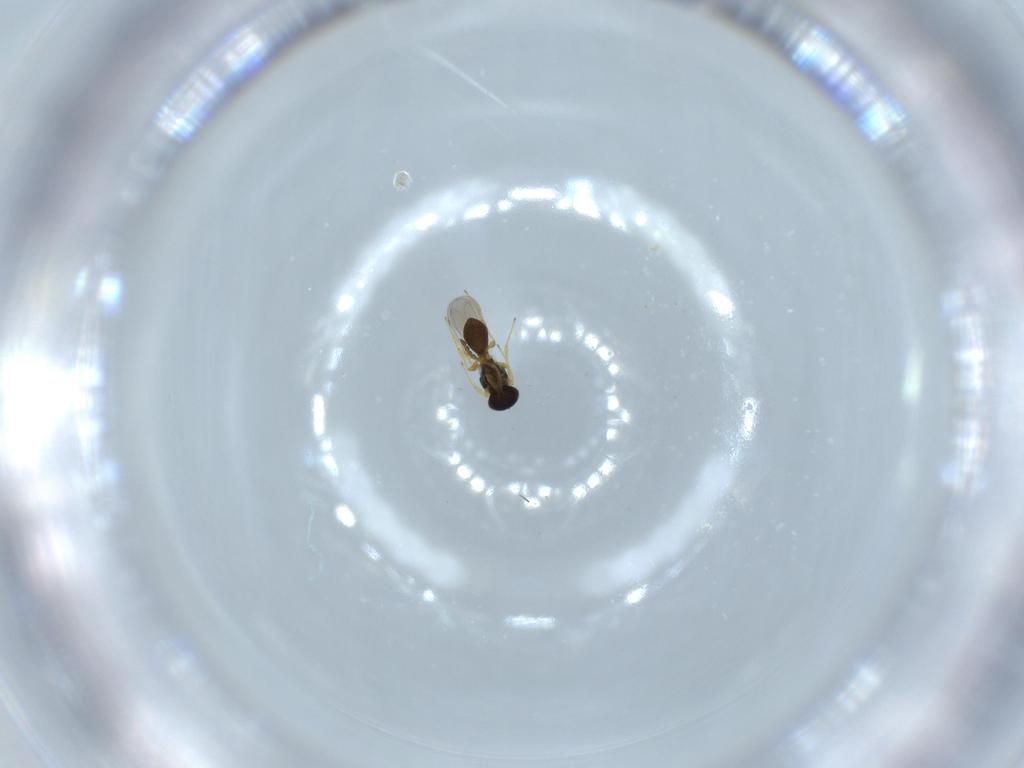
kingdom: Animalia
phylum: Arthropoda
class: Insecta
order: Hymenoptera
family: Platygastridae
